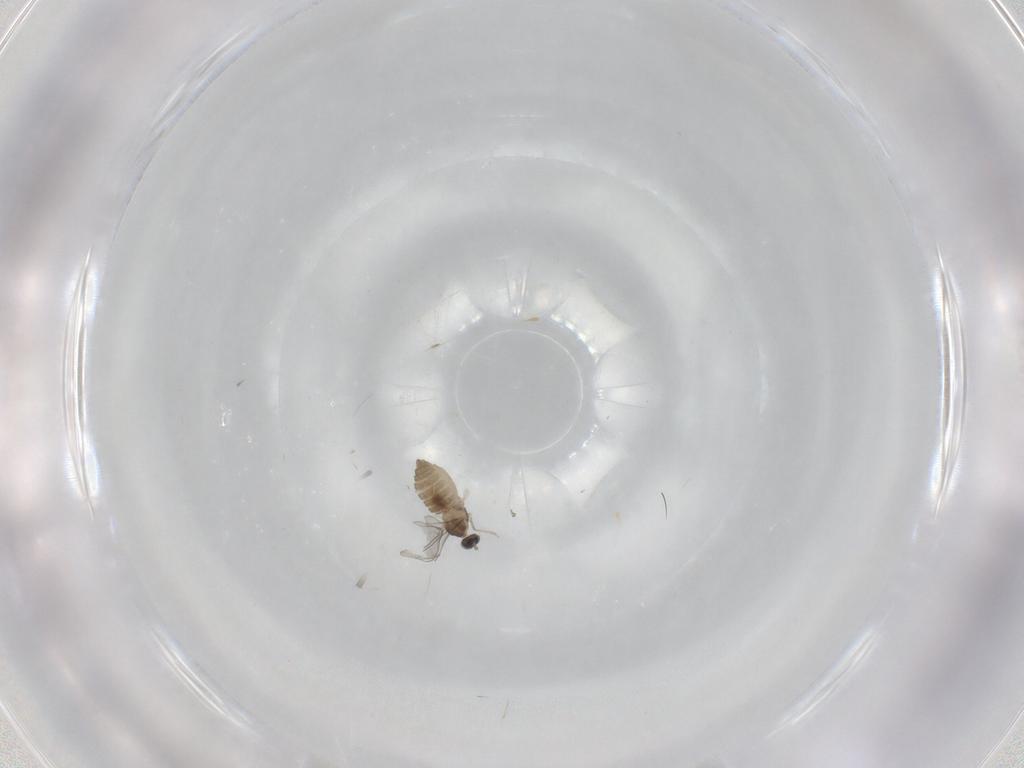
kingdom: Animalia
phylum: Arthropoda
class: Insecta
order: Diptera
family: Cecidomyiidae
